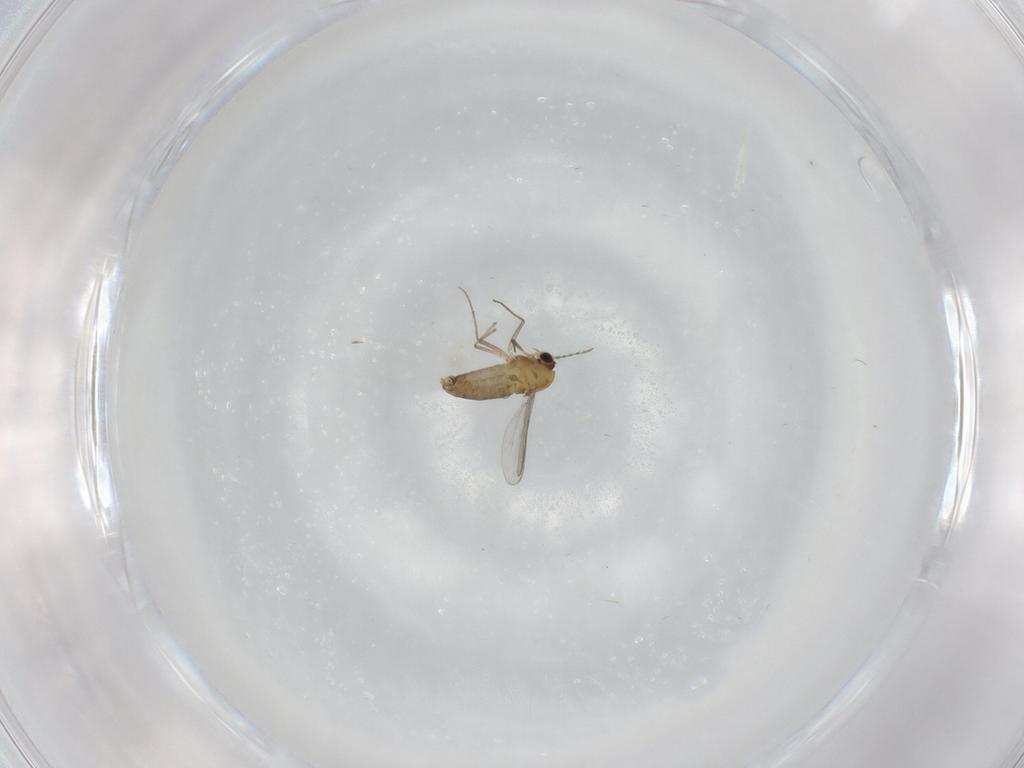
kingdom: Animalia
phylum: Arthropoda
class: Insecta
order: Diptera
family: Chironomidae
